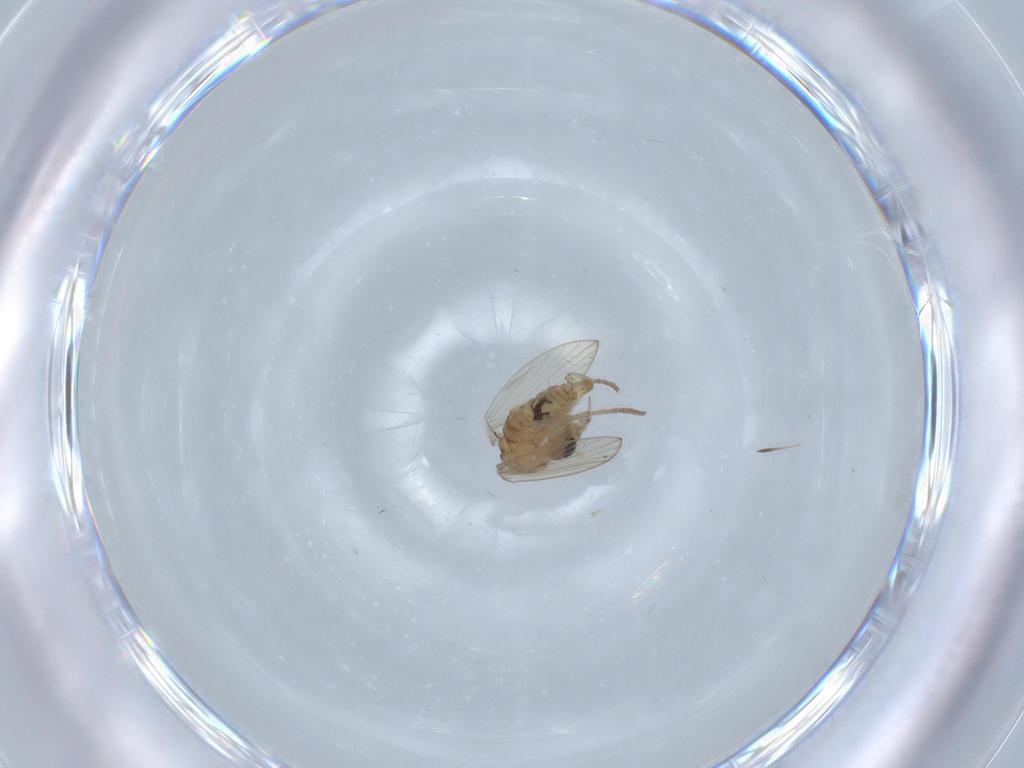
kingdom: Animalia
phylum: Arthropoda
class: Insecta
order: Diptera
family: Psychodidae
